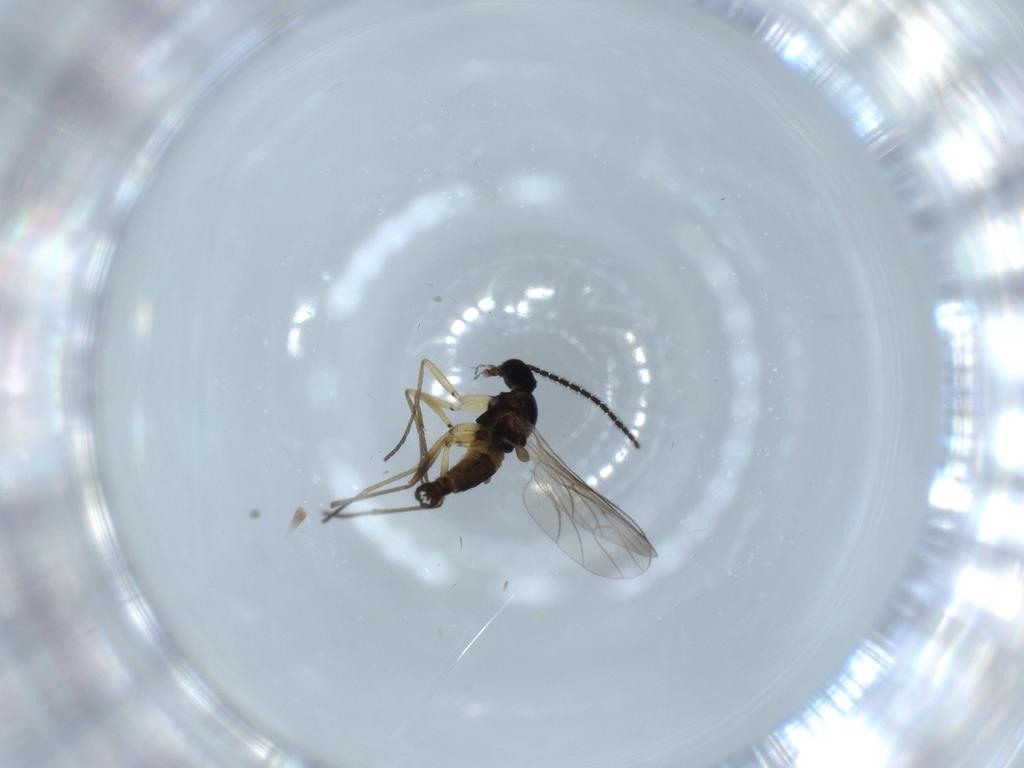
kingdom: Animalia
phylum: Arthropoda
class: Insecta
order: Diptera
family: Sciaridae
